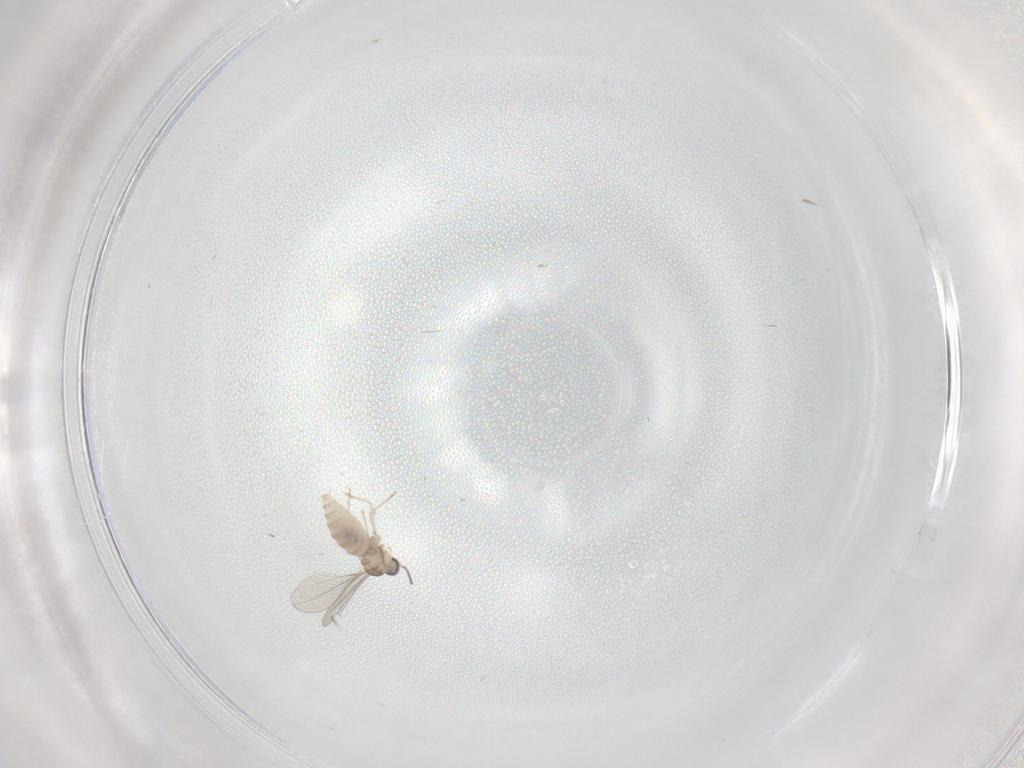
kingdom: Animalia
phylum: Arthropoda
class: Insecta
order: Diptera
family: Cecidomyiidae
